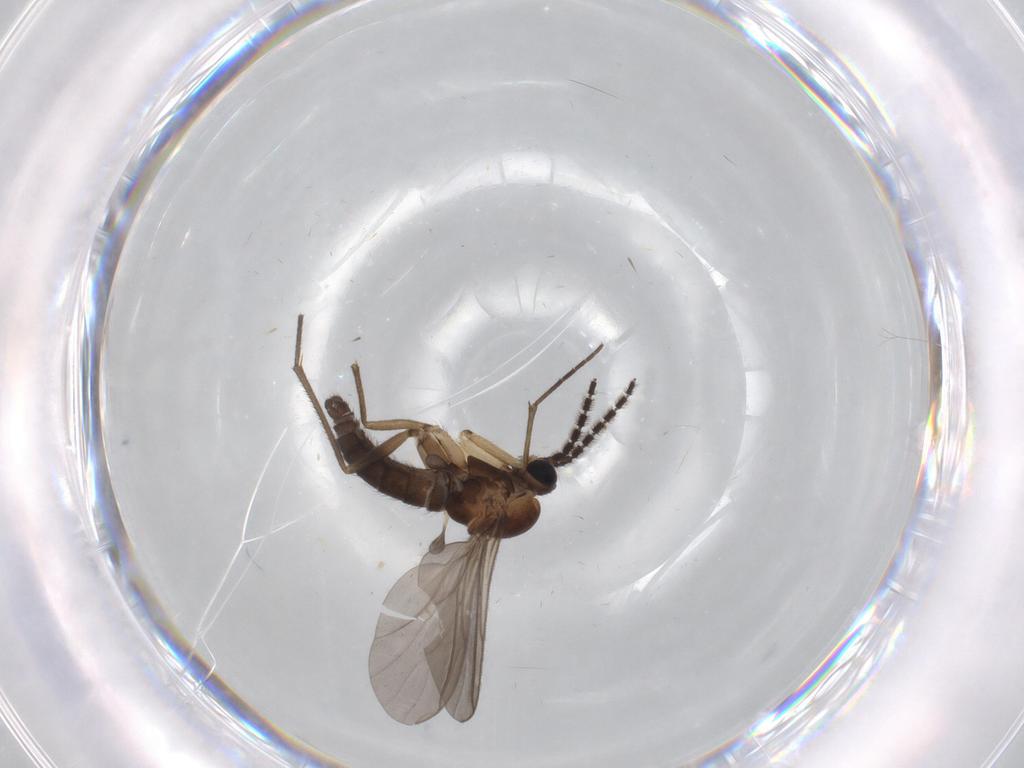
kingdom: Animalia
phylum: Arthropoda
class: Insecta
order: Diptera
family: Sciaridae
